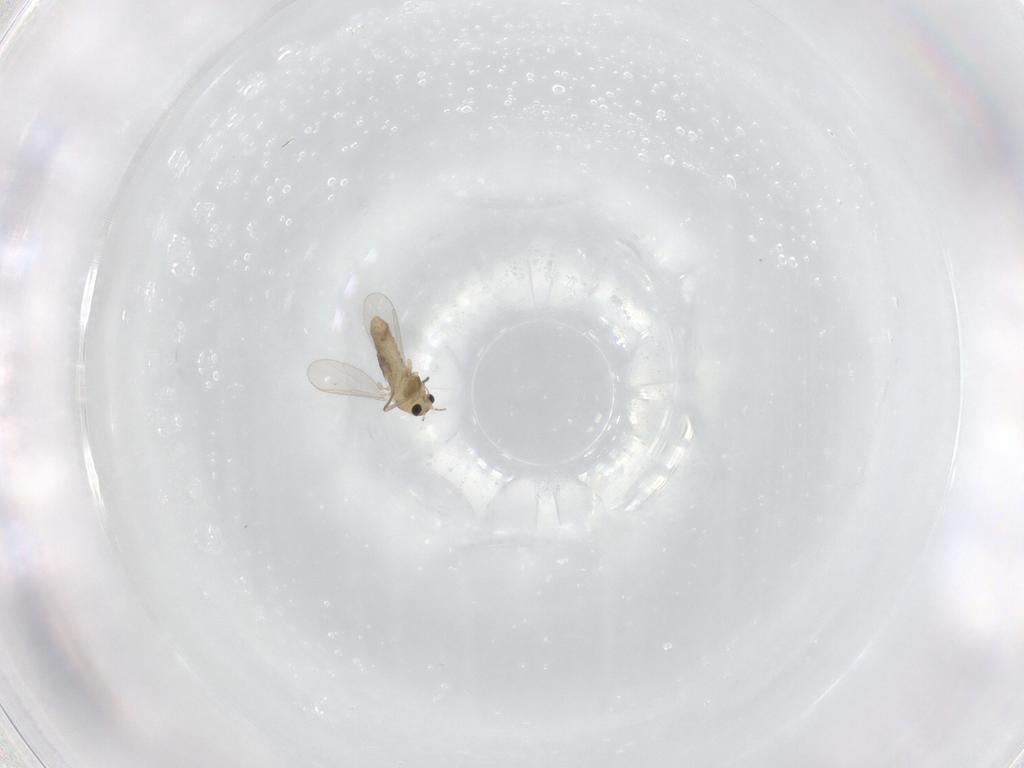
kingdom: Animalia
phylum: Arthropoda
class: Insecta
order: Diptera
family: Chironomidae
